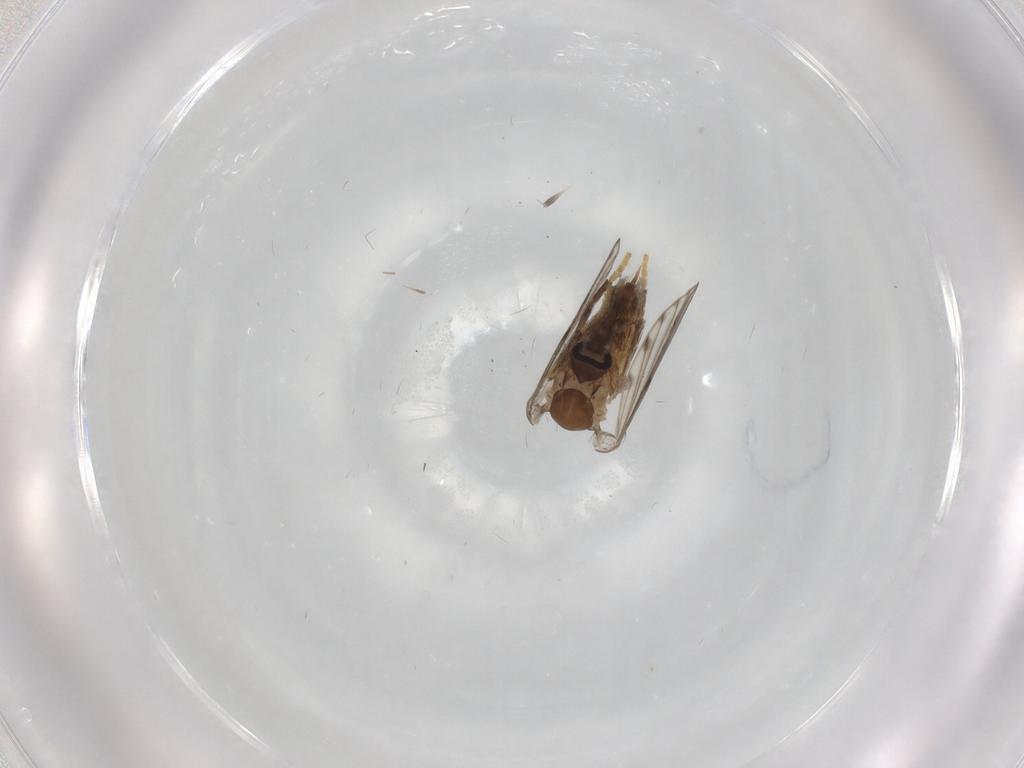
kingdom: Animalia
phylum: Arthropoda
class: Insecta
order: Diptera
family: Psychodidae
